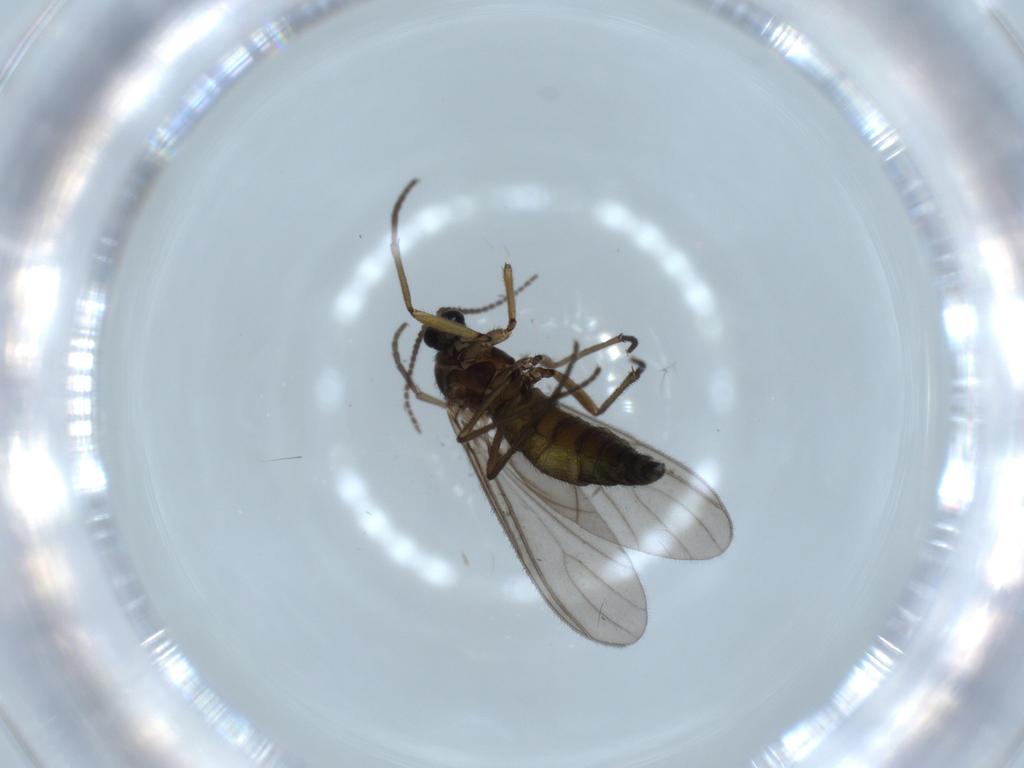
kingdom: Animalia
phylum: Arthropoda
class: Insecta
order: Diptera
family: Sciaridae
